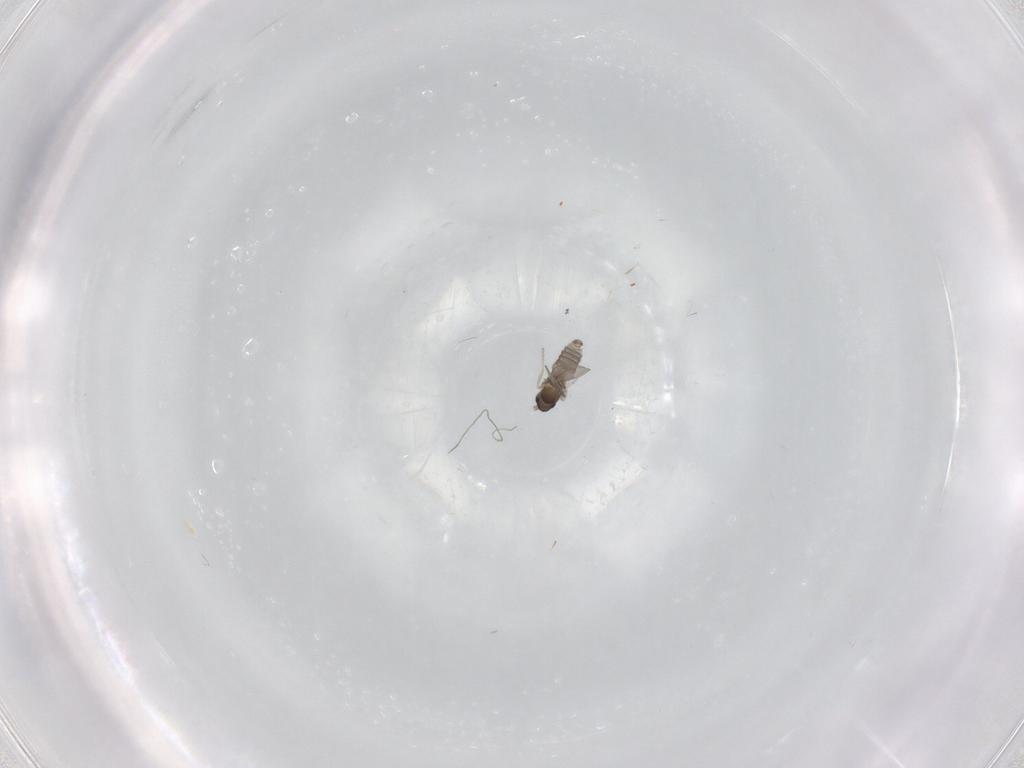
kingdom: Animalia
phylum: Arthropoda
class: Insecta
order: Diptera
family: Cecidomyiidae
